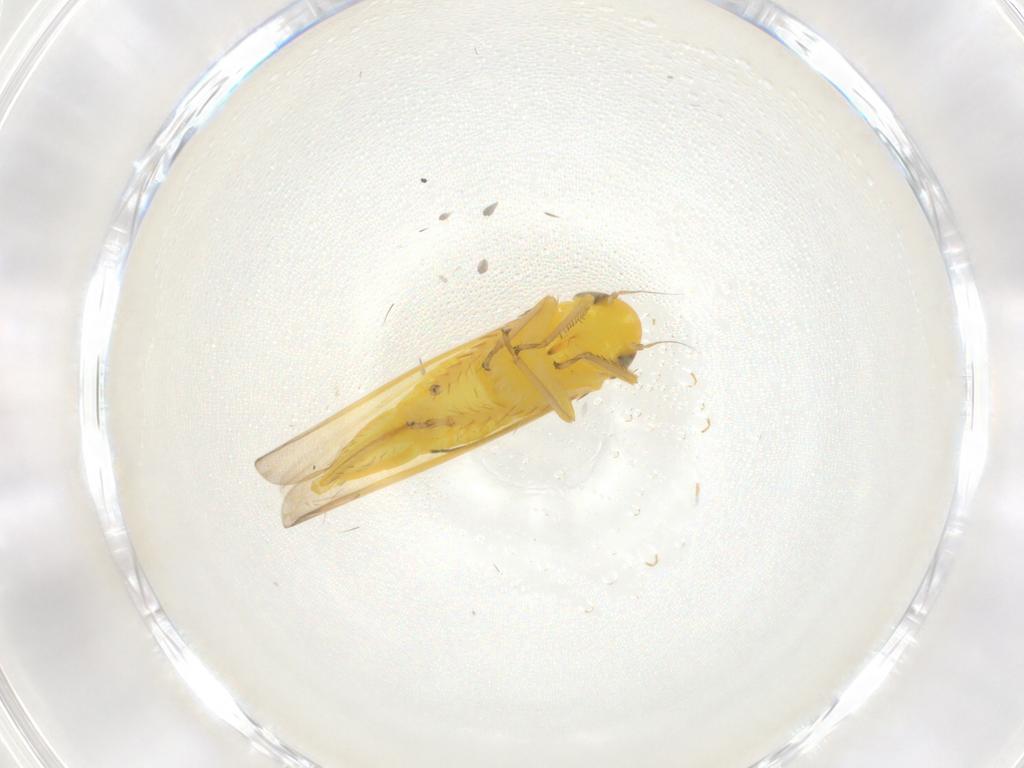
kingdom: Animalia
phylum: Arthropoda
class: Insecta
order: Hemiptera
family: Cicadellidae
